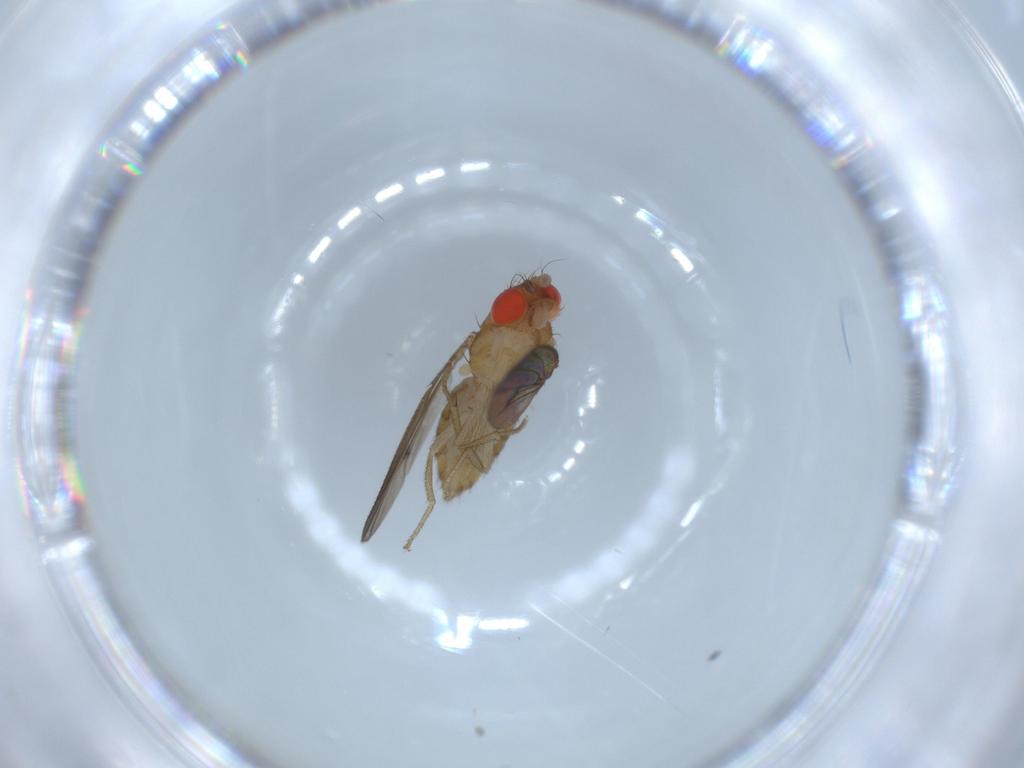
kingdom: Animalia
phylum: Arthropoda
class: Insecta
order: Diptera
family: Drosophilidae
